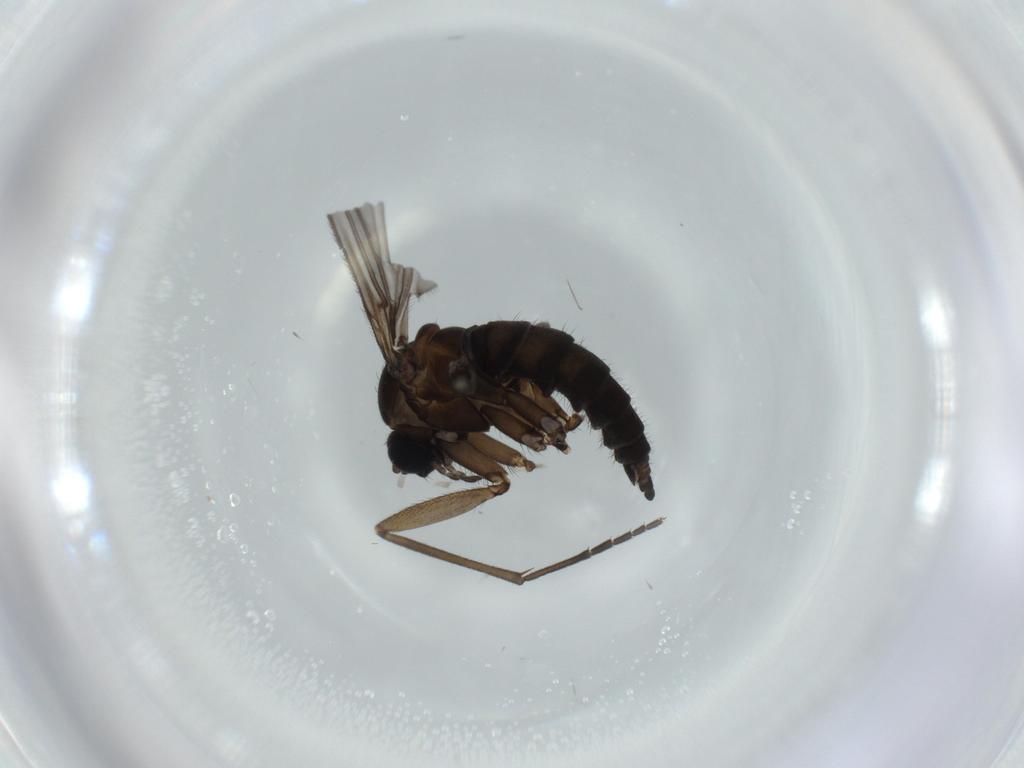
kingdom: Animalia
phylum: Arthropoda
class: Insecta
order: Diptera
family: Sciaridae
